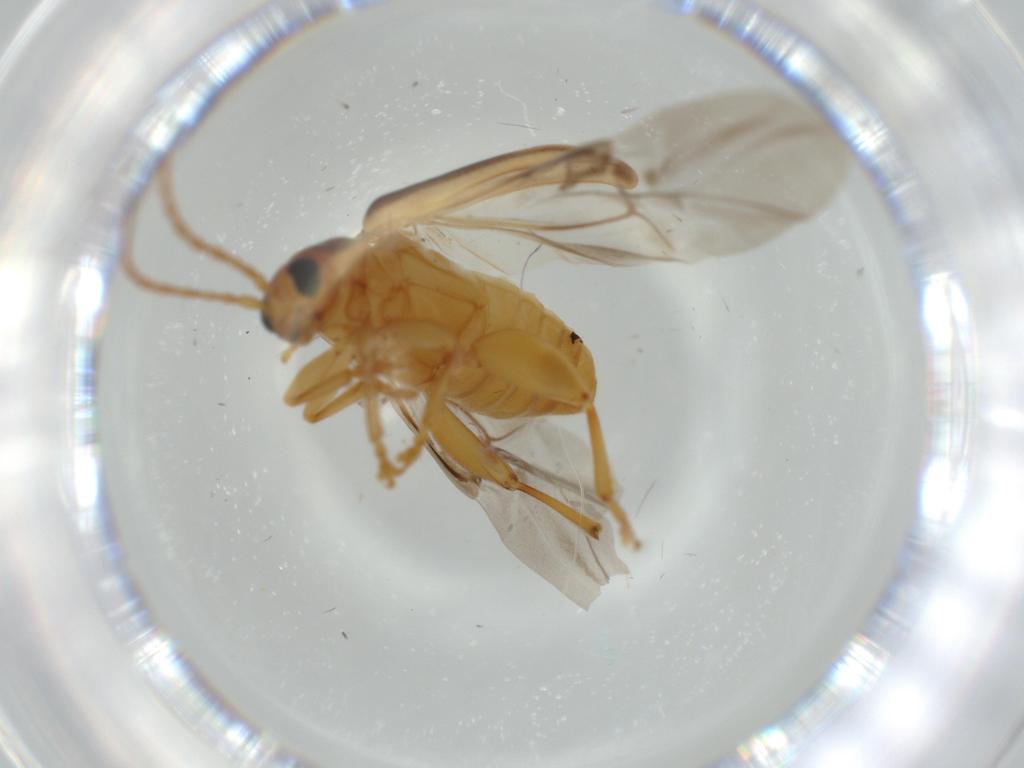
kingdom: Animalia
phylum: Arthropoda
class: Insecta
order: Coleoptera
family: Chrysomelidae
